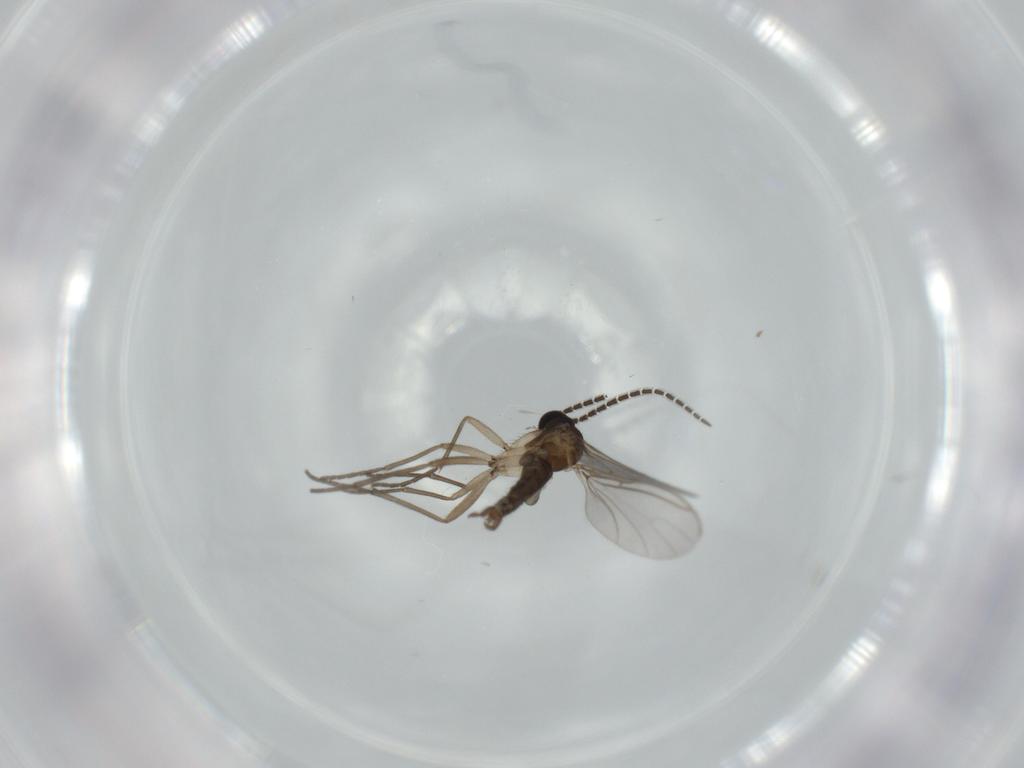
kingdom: Animalia
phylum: Arthropoda
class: Insecta
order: Diptera
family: Sciaridae
